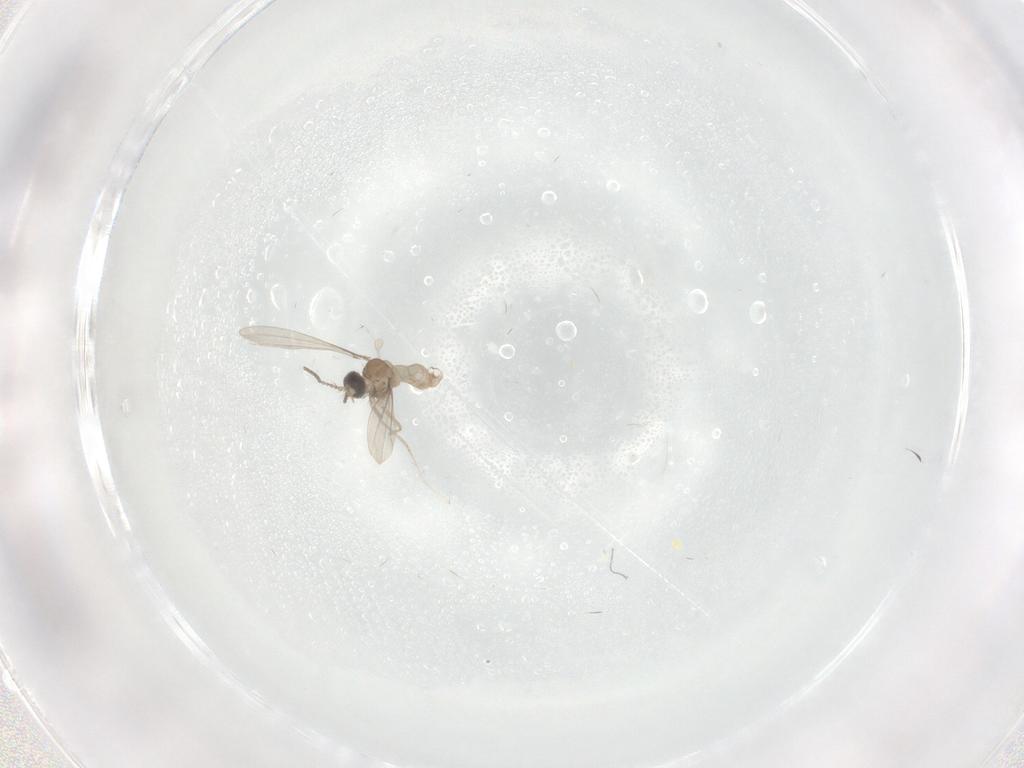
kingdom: Animalia
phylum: Arthropoda
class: Insecta
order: Diptera
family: Cecidomyiidae
